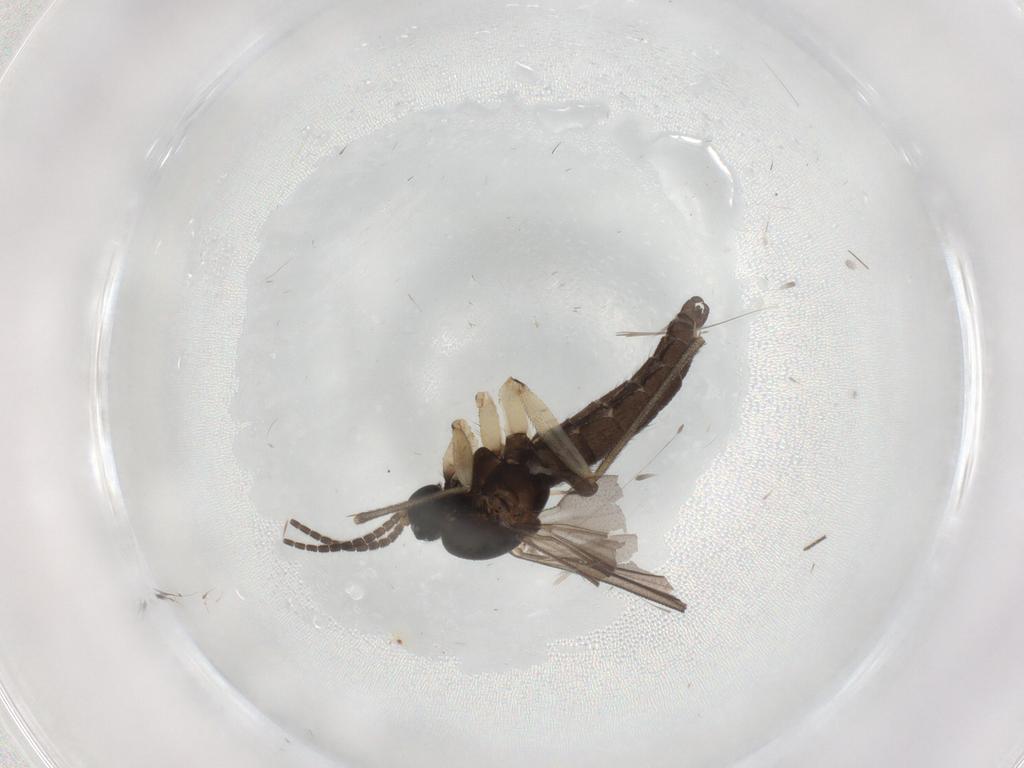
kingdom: Animalia
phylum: Arthropoda
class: Insecta
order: Diptera
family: Sciaridae
